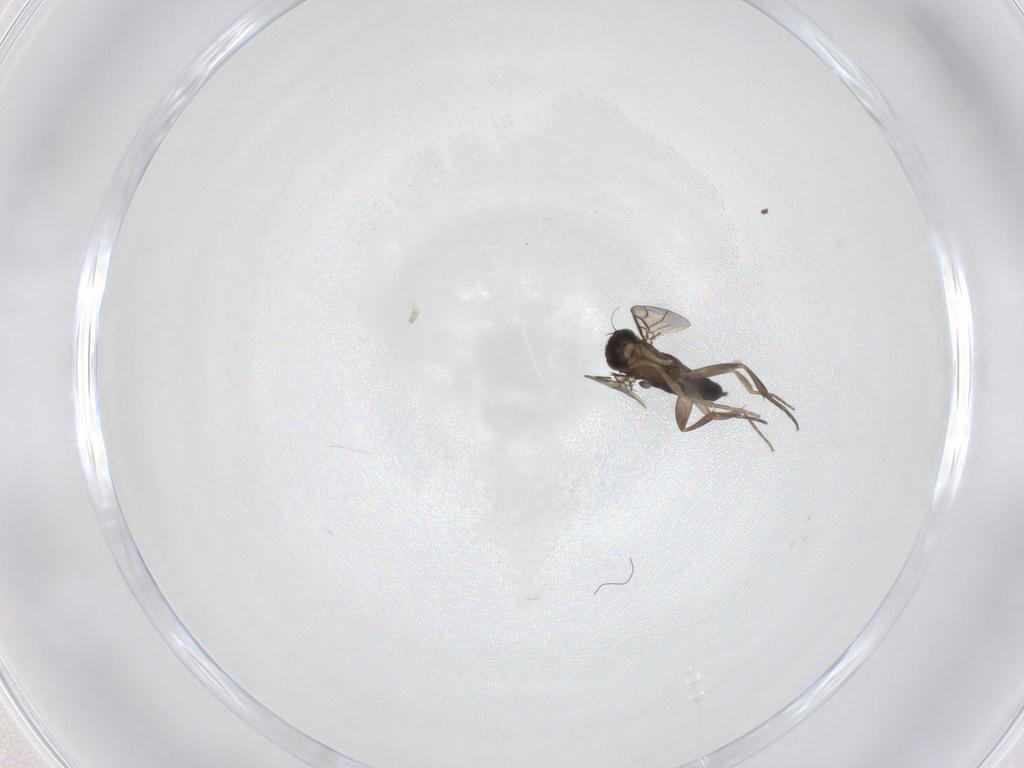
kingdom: Animalia
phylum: Arthropoda
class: Insecta
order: Diptera
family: Phoridae
